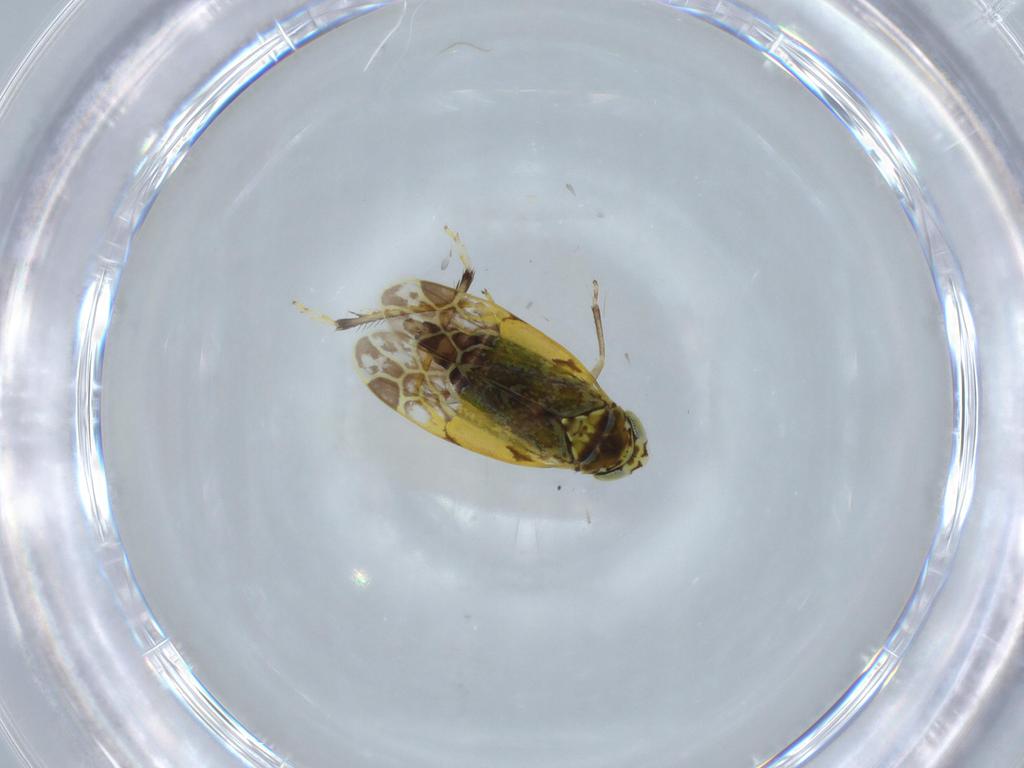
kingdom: Animalia
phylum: Arthropoda
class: Insecta
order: Hemiptera
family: Cicadellidae
